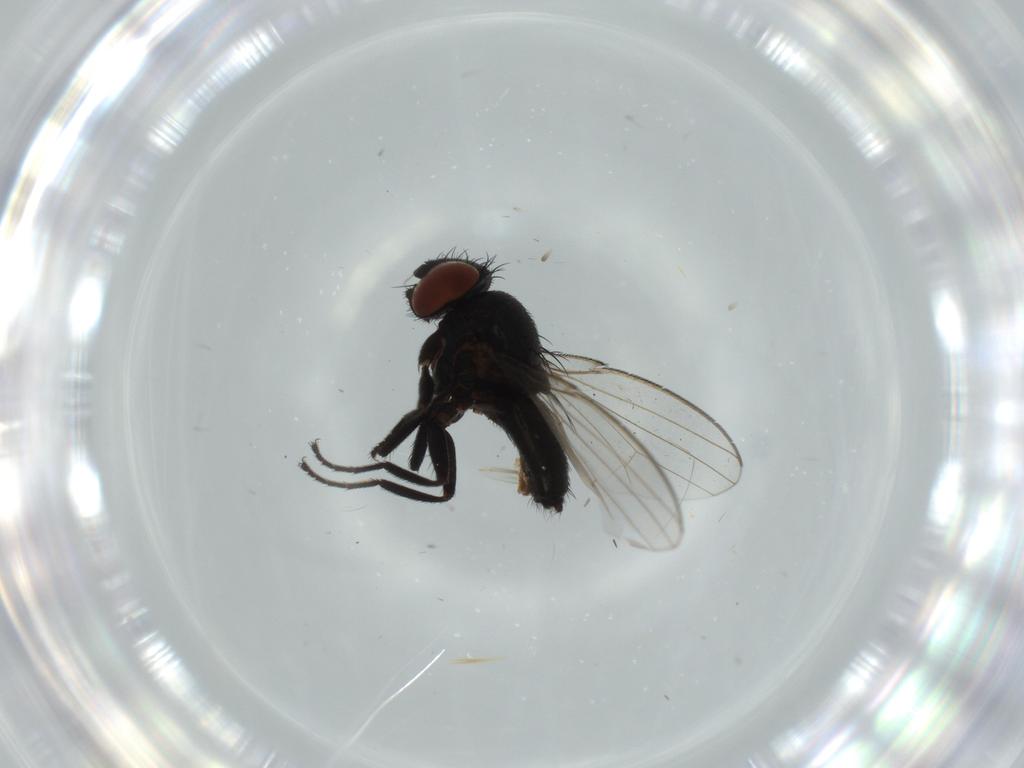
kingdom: Animalia
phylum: Arthropoda
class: Insecta
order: Diptera
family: Milichiidae
